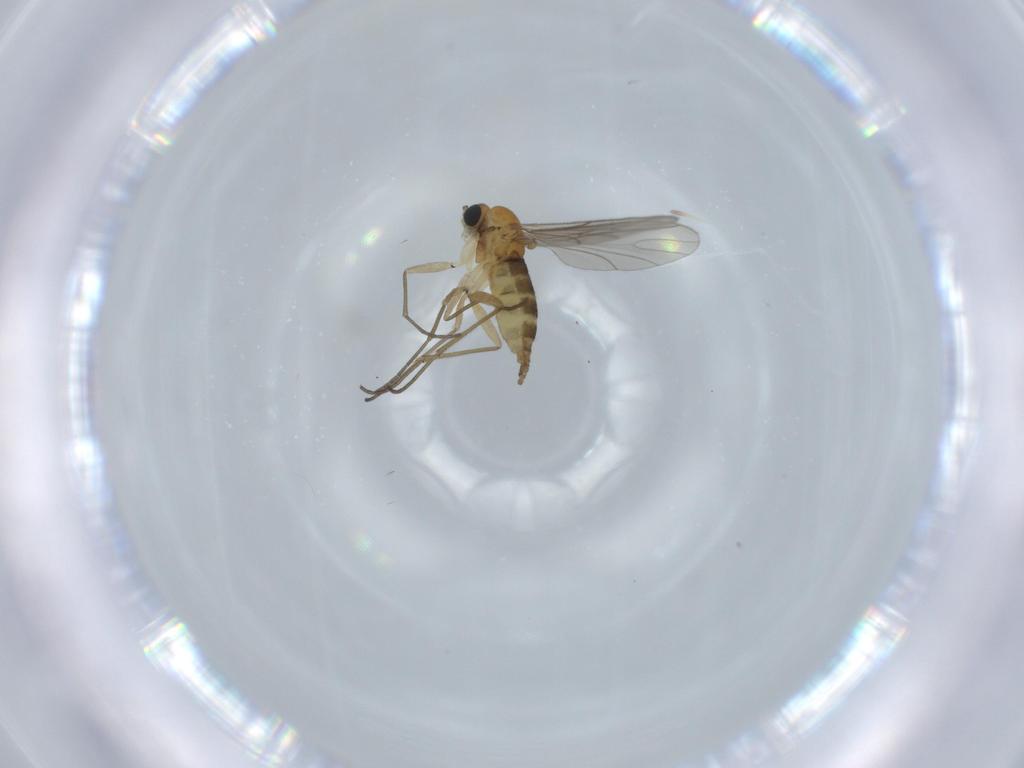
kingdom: Animalia
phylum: Arthropoda
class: Insecta
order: Diptera
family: Sciaridae
